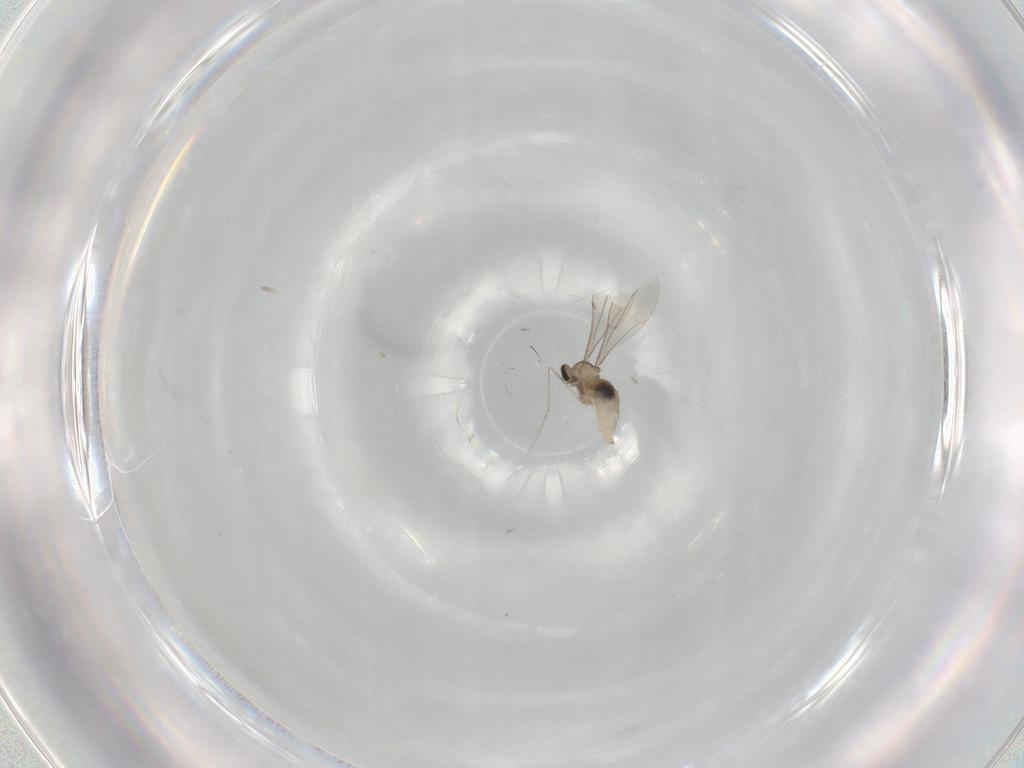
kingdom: Animalia
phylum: Arthropoda
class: Insecta
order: Diptera
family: Cecidomyiidae
